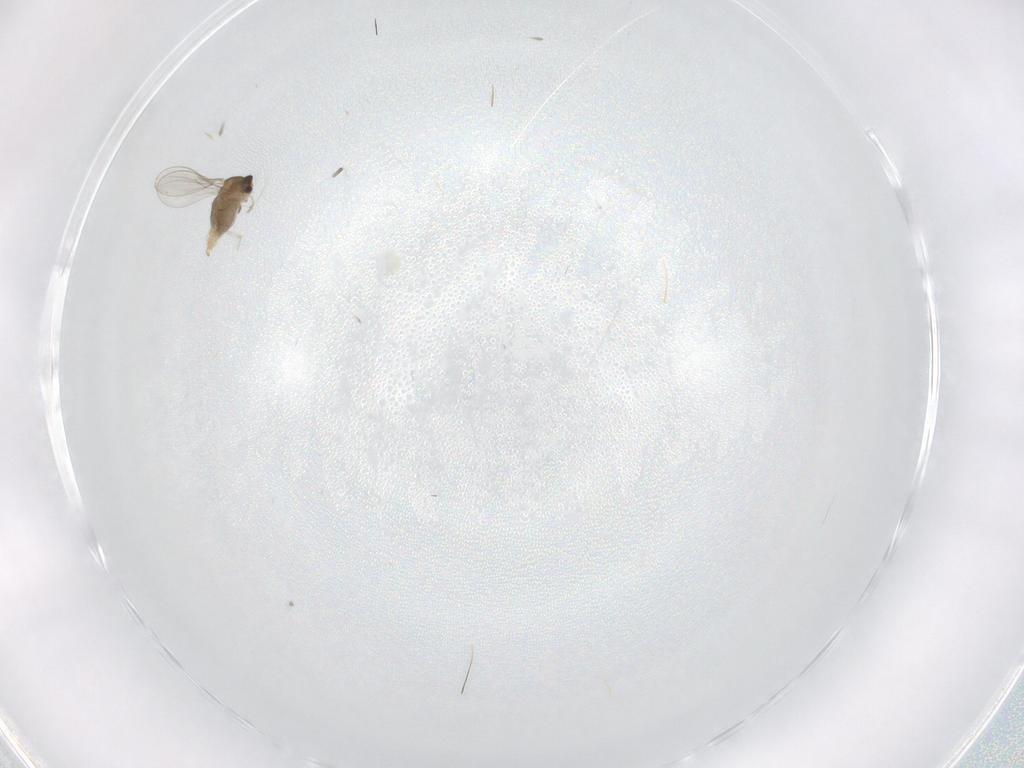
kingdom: Animalia
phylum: Arthropoda
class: Insecta
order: Diptera
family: Cecidomyiidae
